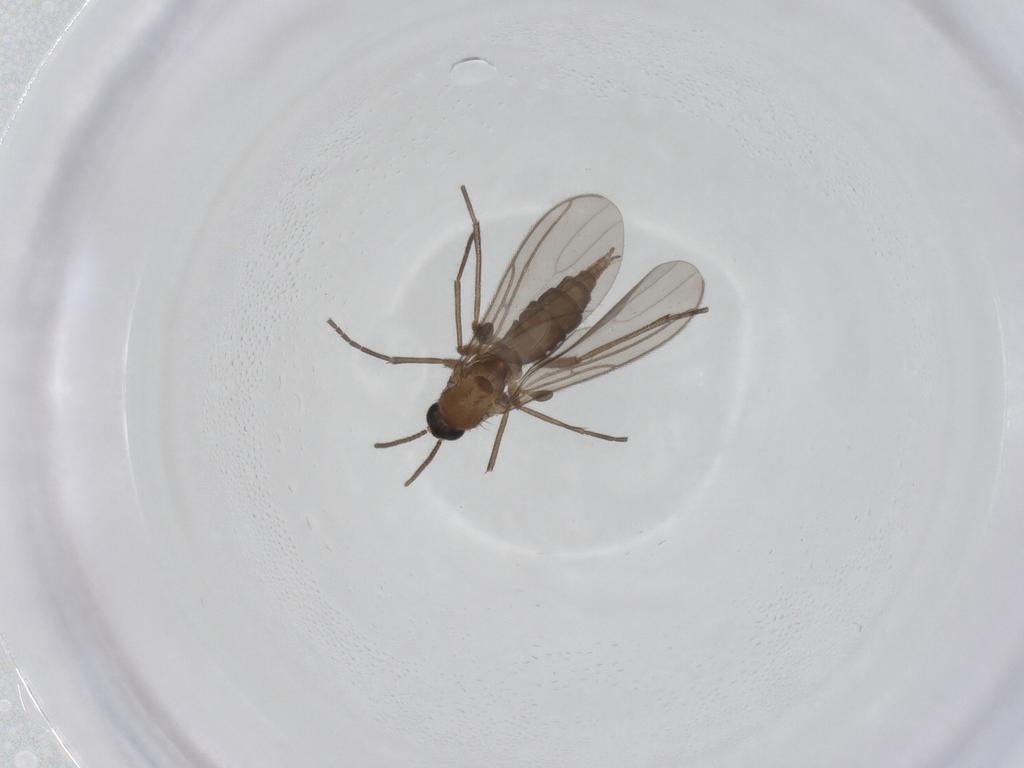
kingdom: Animalia
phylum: Arthropoda
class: Insecta
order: Diptera
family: Sciaridae
